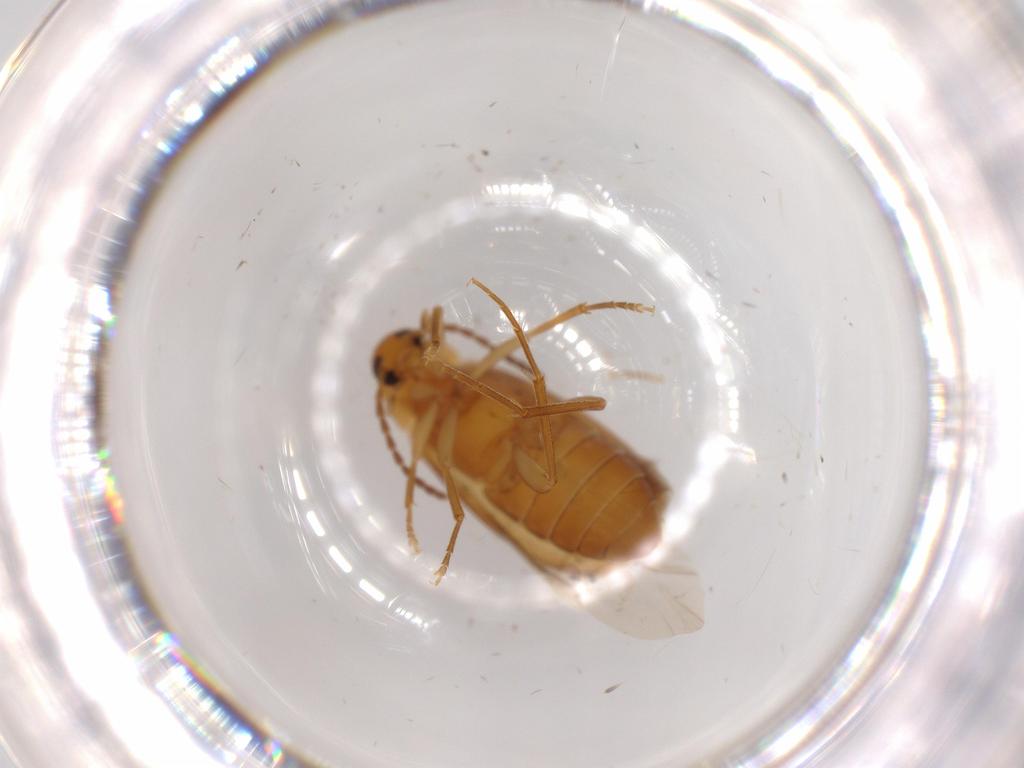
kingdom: Animalia
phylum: Arthropoda
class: Insecta
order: Coleoptera
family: Scraptiidae
